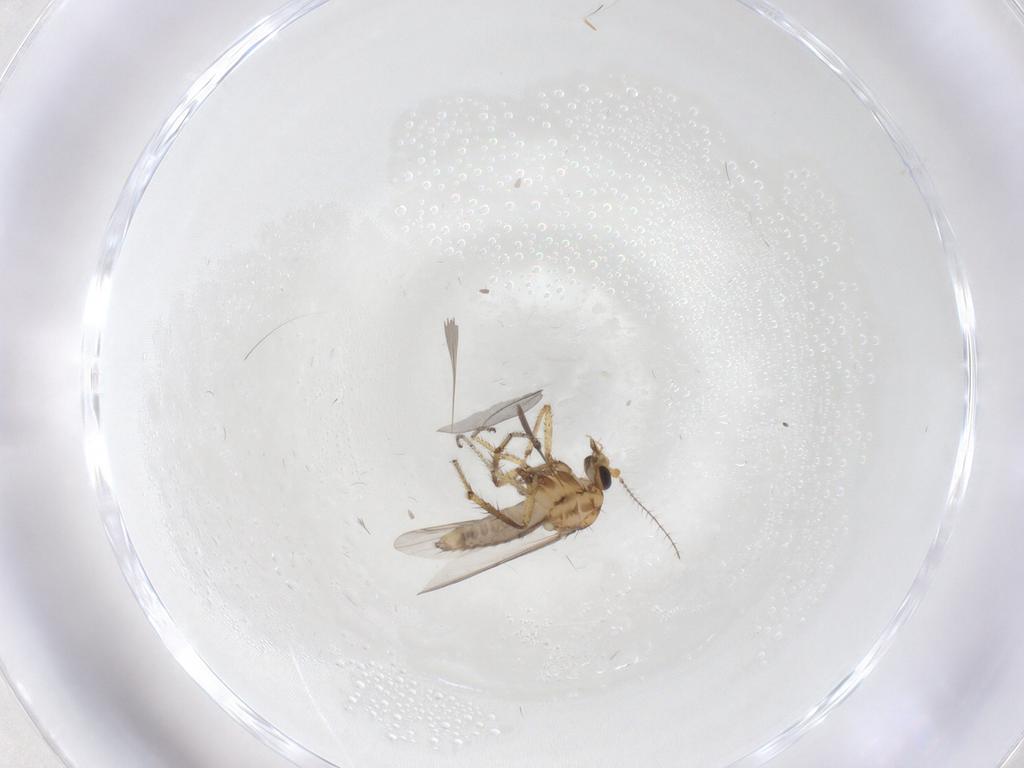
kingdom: Animalia
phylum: Arthropoda
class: Insecta
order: Diptera
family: Ceratopogonidae
